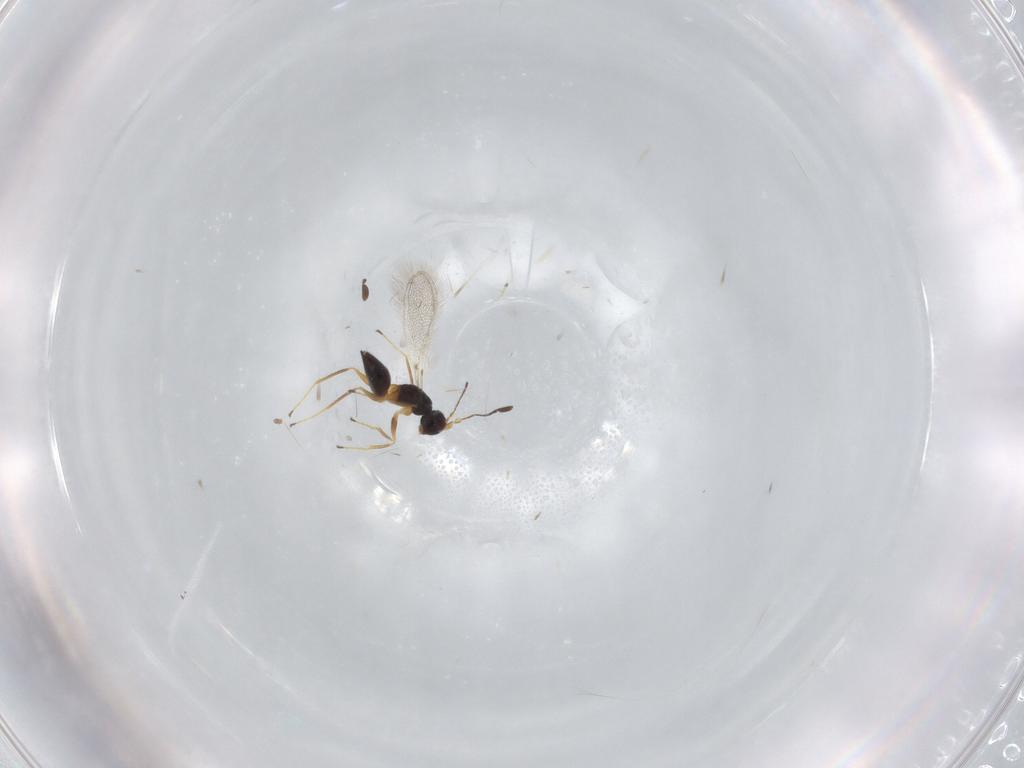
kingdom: Animalia
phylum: Arthropoda
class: Insecta
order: Hymenoptera
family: Mymaridae
